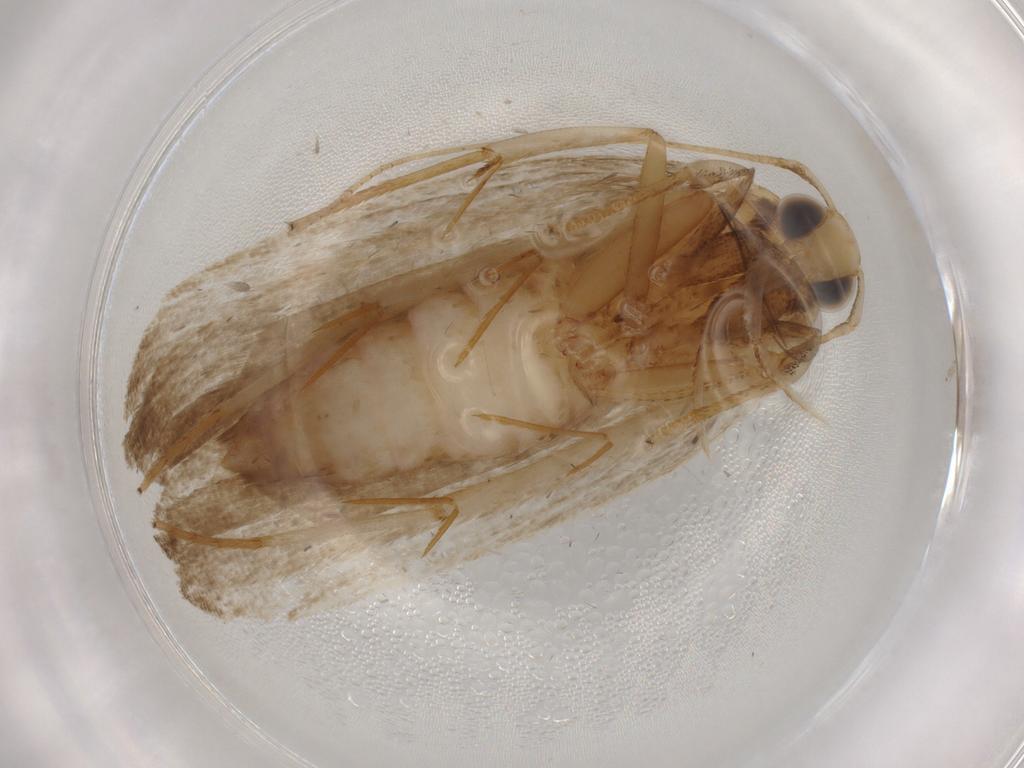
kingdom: Animalia
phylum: Arthropoda
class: Insecta
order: Lepidoptera
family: Autostichidae
